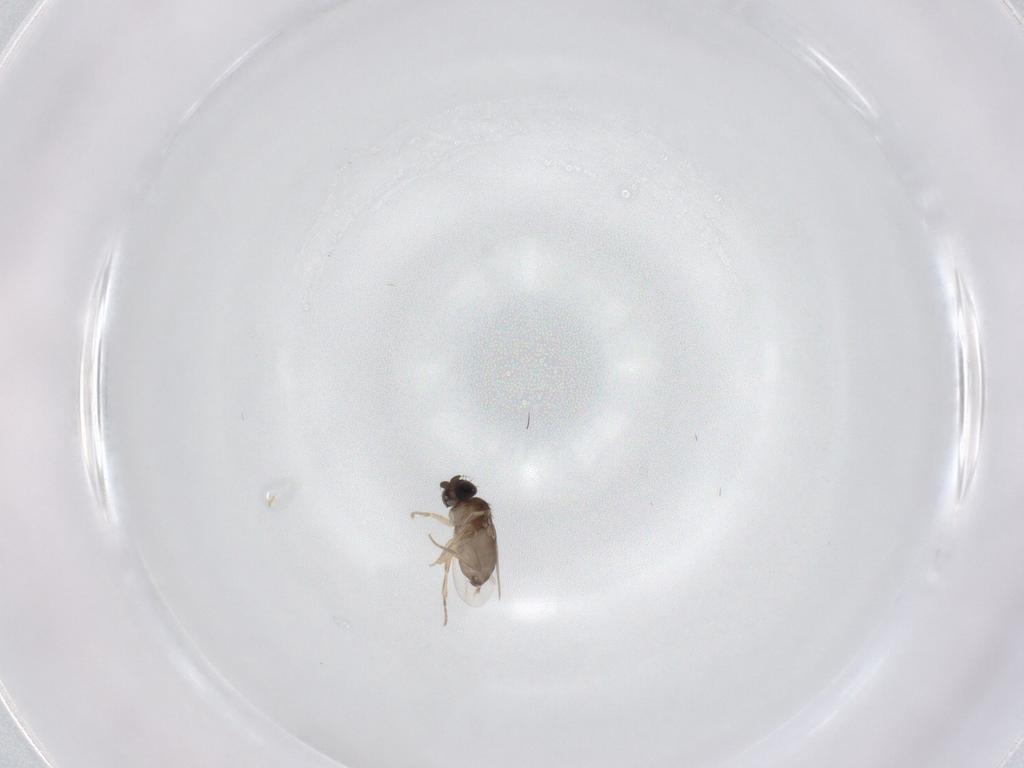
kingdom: Animalia
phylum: Arthropoda
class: Insecta
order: Diptera
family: Phoridae
